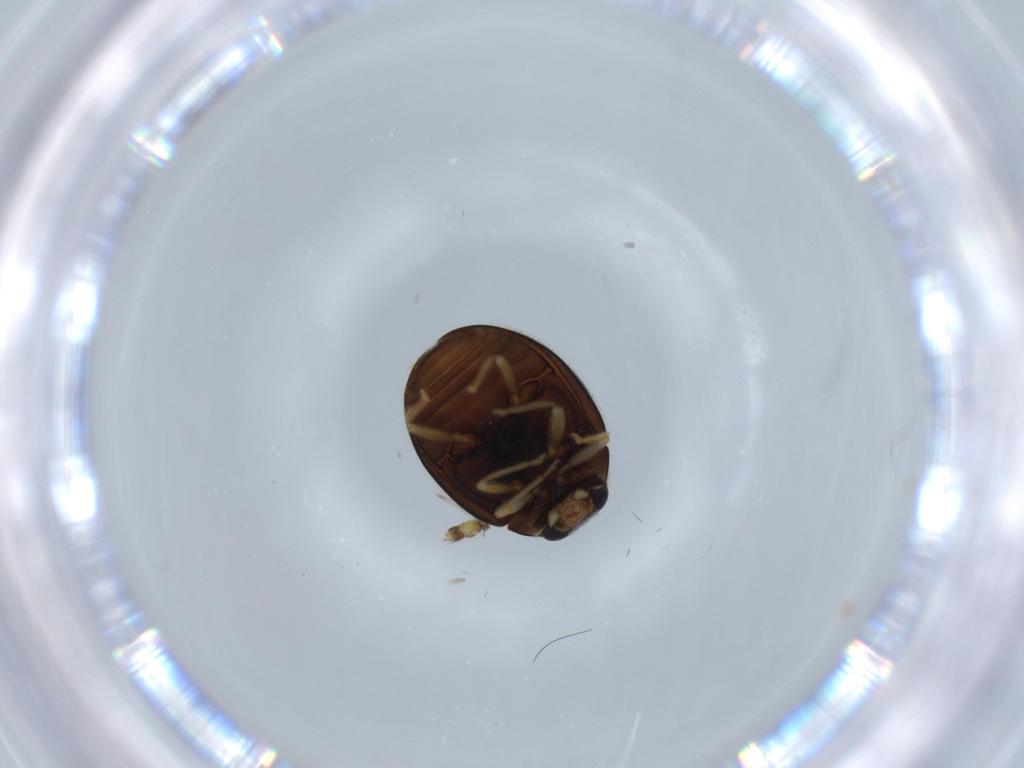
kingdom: Animalia
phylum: Arthropoda
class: Insecta
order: Coleoptera
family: Coccinellidae
